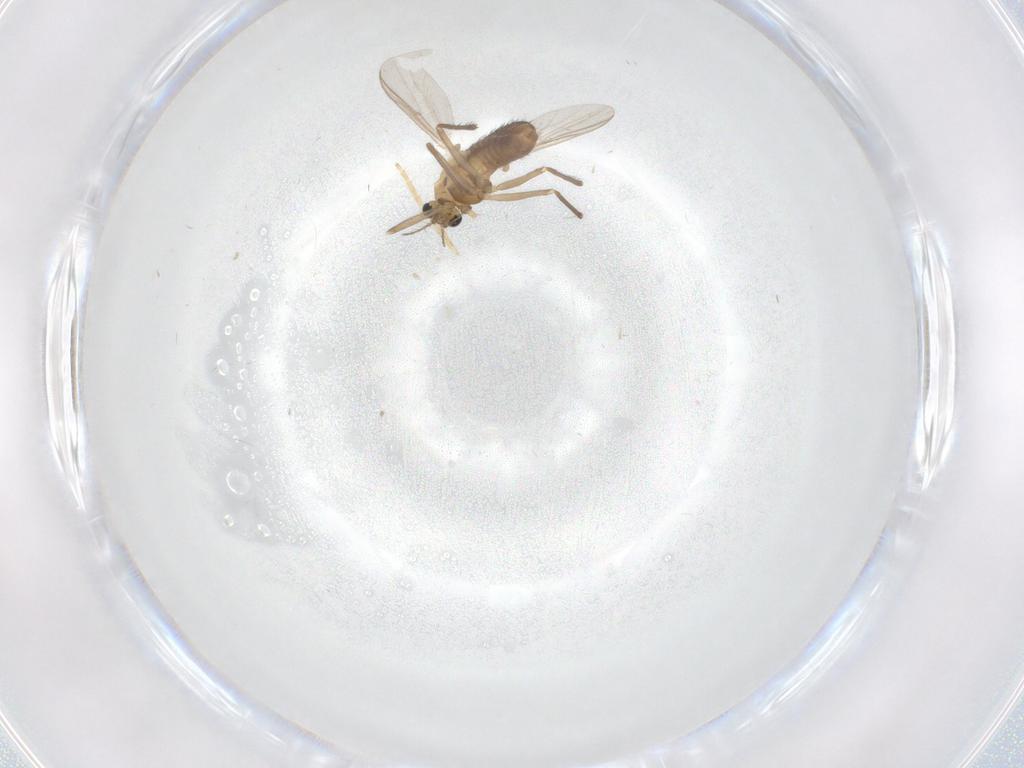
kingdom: Animalia
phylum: Arthropoda
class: Insecta
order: Diptera
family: Chironomidae
